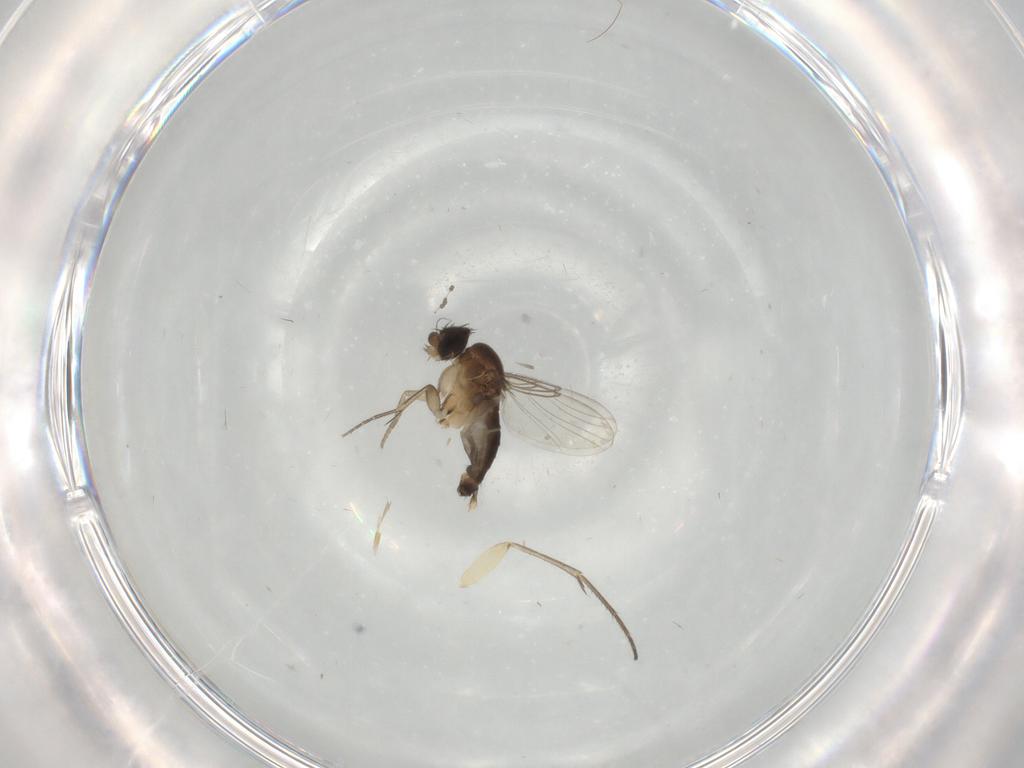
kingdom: Animalia
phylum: Arthropoda
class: Insecta
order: Diptera
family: Phoridae
